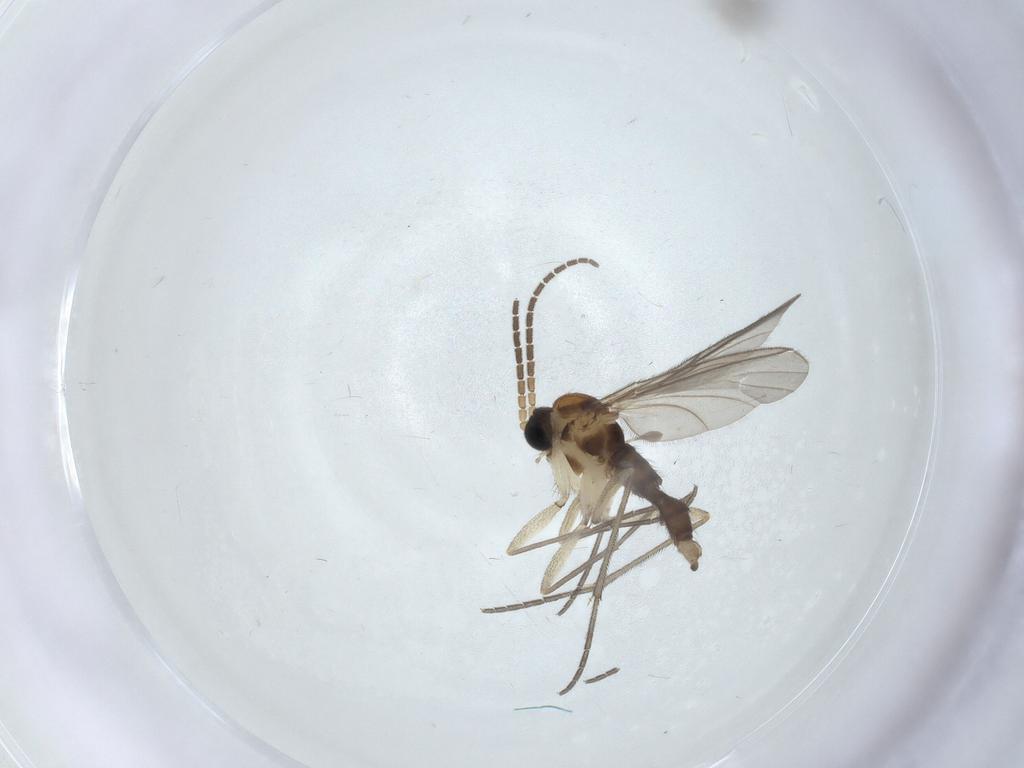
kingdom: Animalia
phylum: Arthropoda
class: Insecta
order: Diptera
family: Sciaridae
